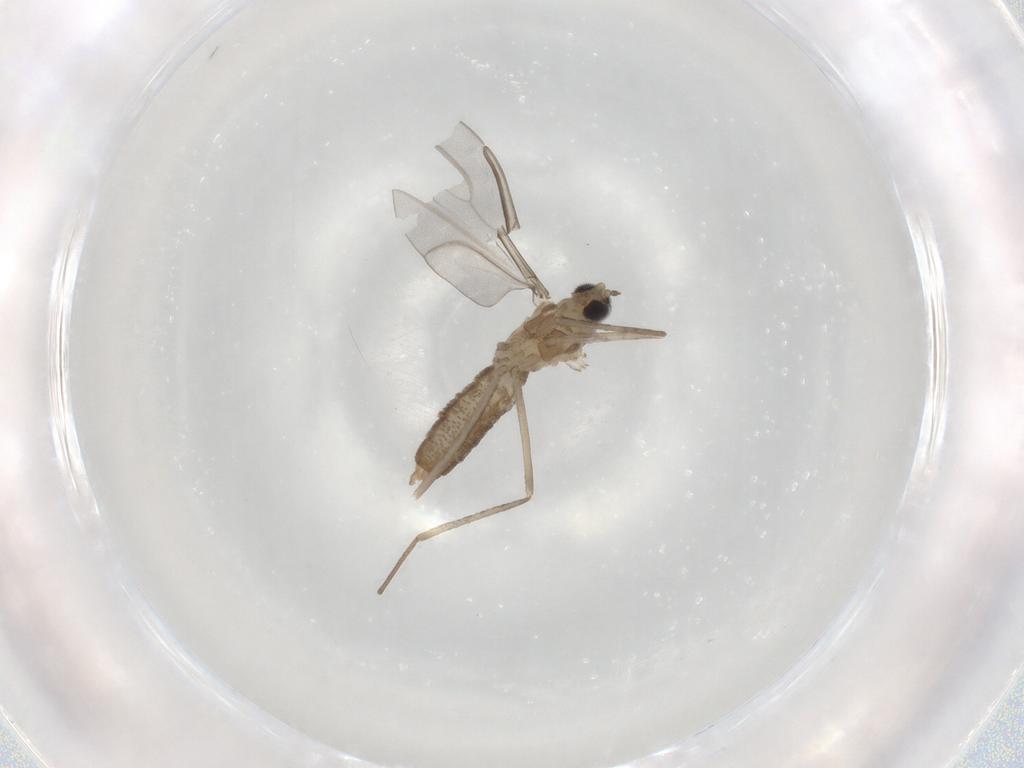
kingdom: Animalia
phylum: Arthropoda
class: Insecta
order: Diptera
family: Cecidomyiidae
